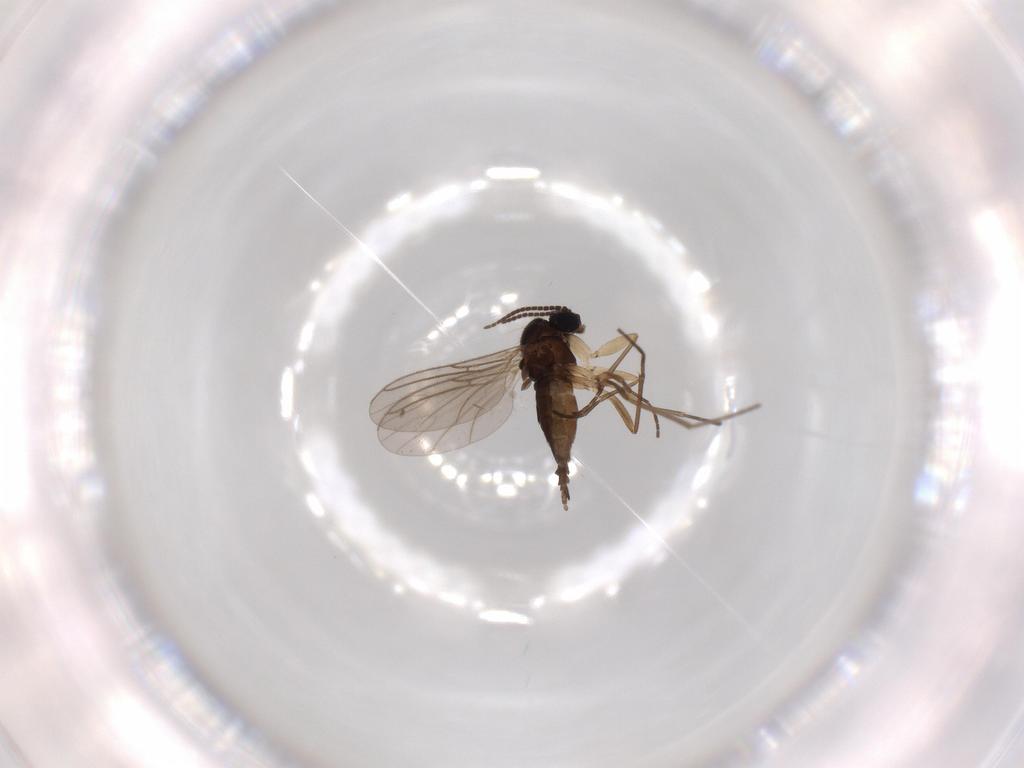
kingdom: Animalia
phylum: Arthropoda
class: Insecta
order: Diptera
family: Sciaridae
